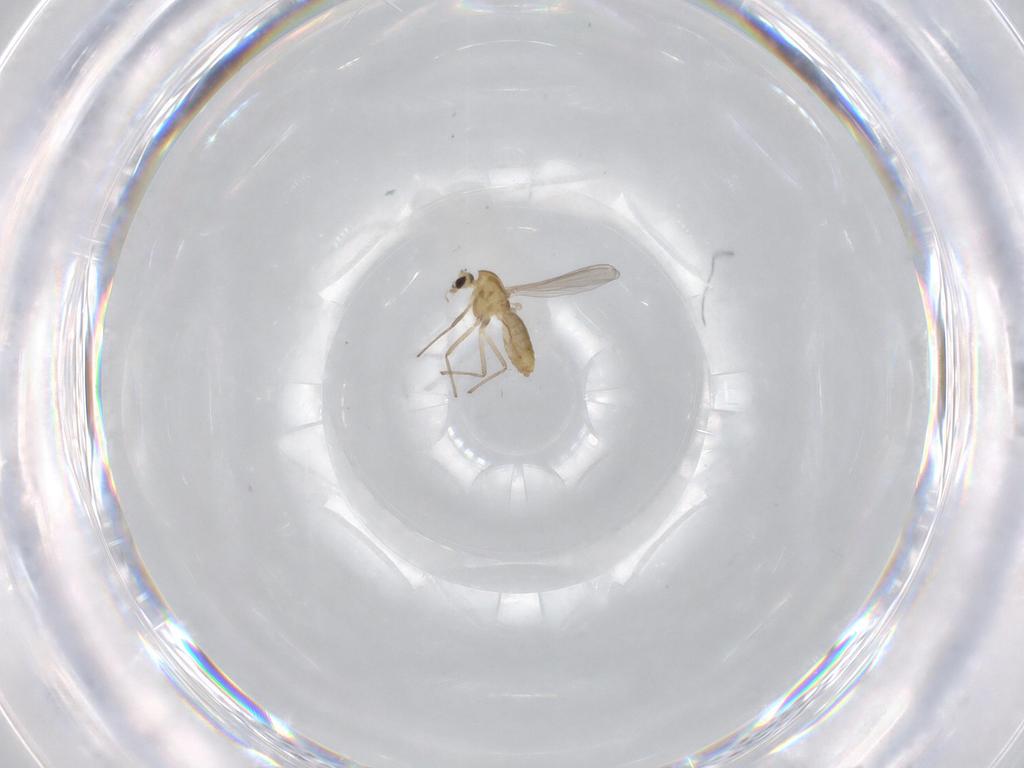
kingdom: Animalia
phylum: Arthropoda
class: Insecta
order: Diptera
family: Chironomidae
